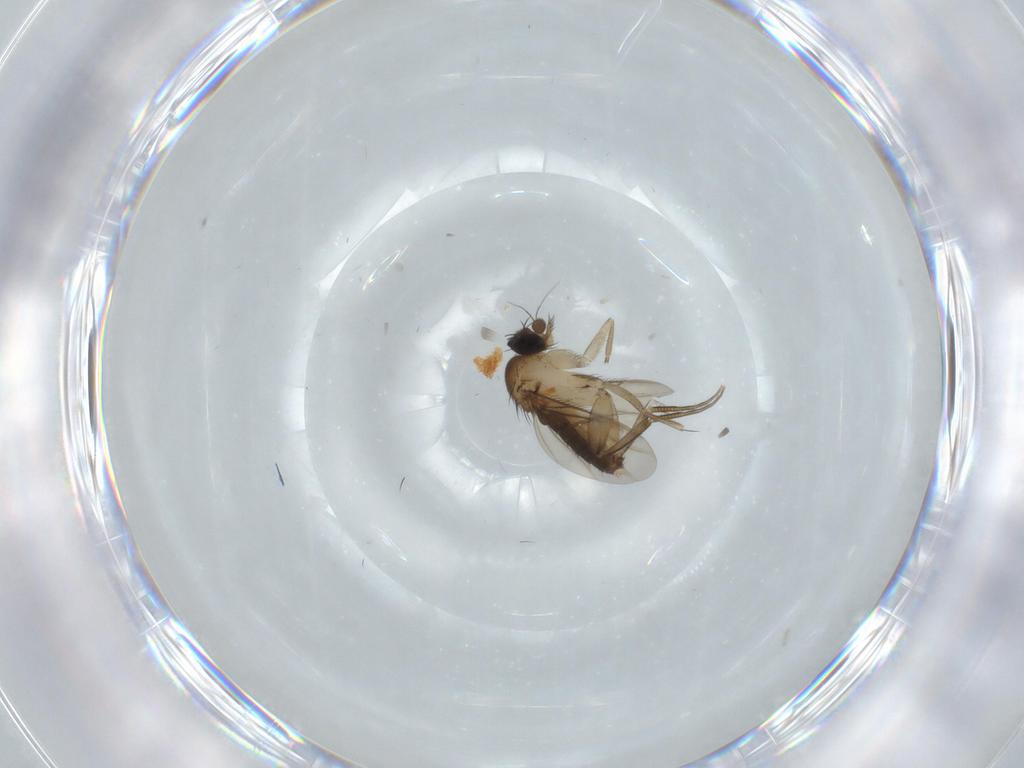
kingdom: Animalia
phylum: Arthropoda
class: Insecta
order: Diptera
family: Phoridae
